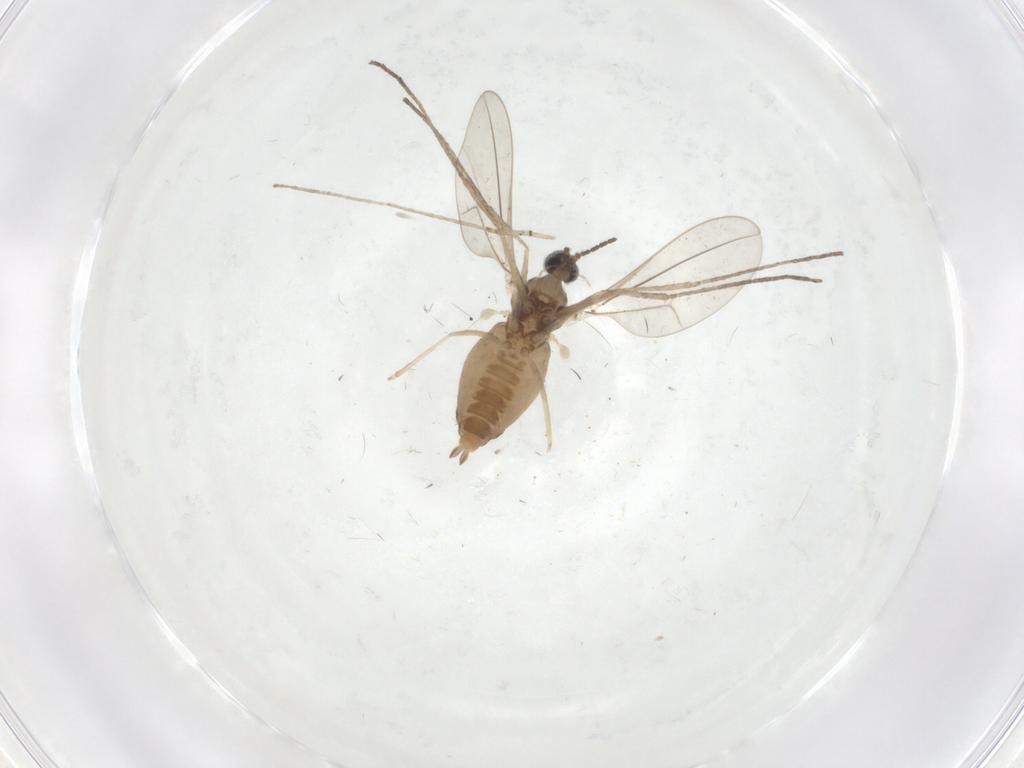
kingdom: Animalia
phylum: Arthropoda
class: Insecta
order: Diptera
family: Cecidomyiidae
